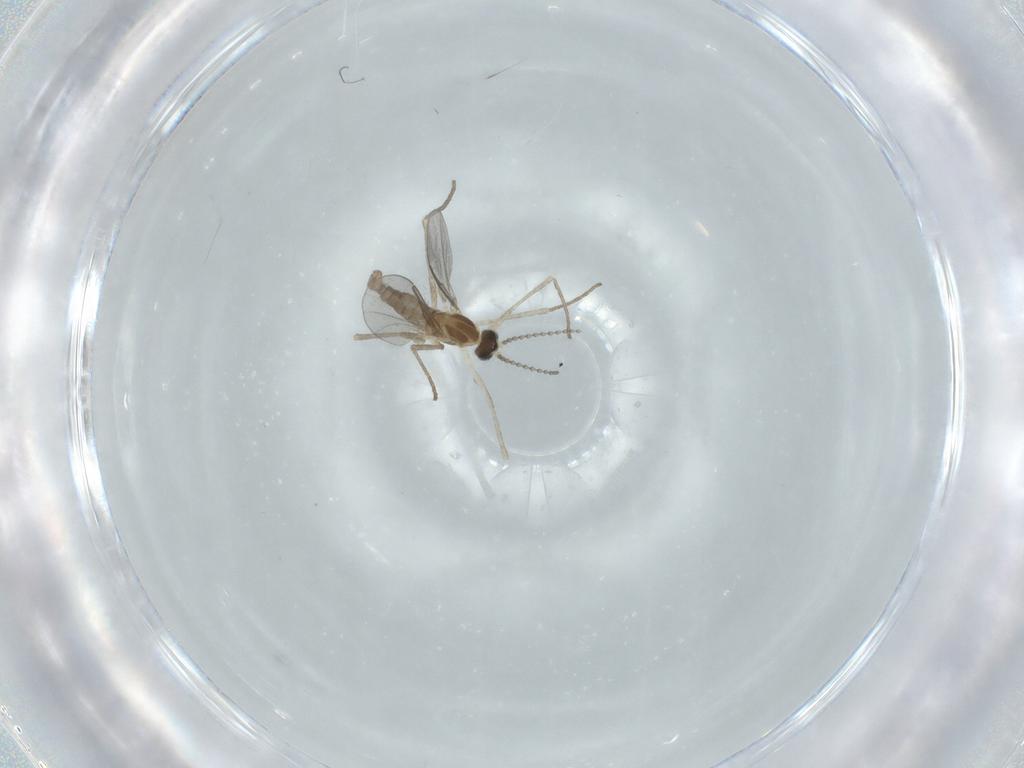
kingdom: Animalia
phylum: Arthropoda
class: Insecta
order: Diptera
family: Cecidomyiidae
